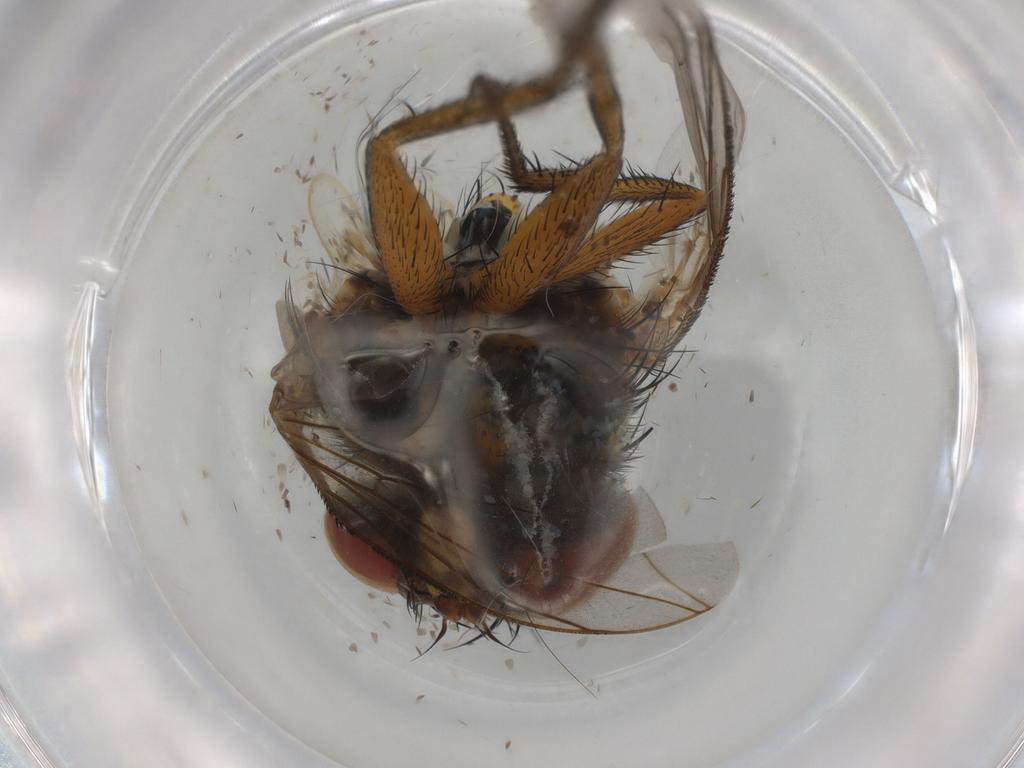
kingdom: Animalia
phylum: Arthropoda
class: Insecta
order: Diptera
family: Tachinidae
